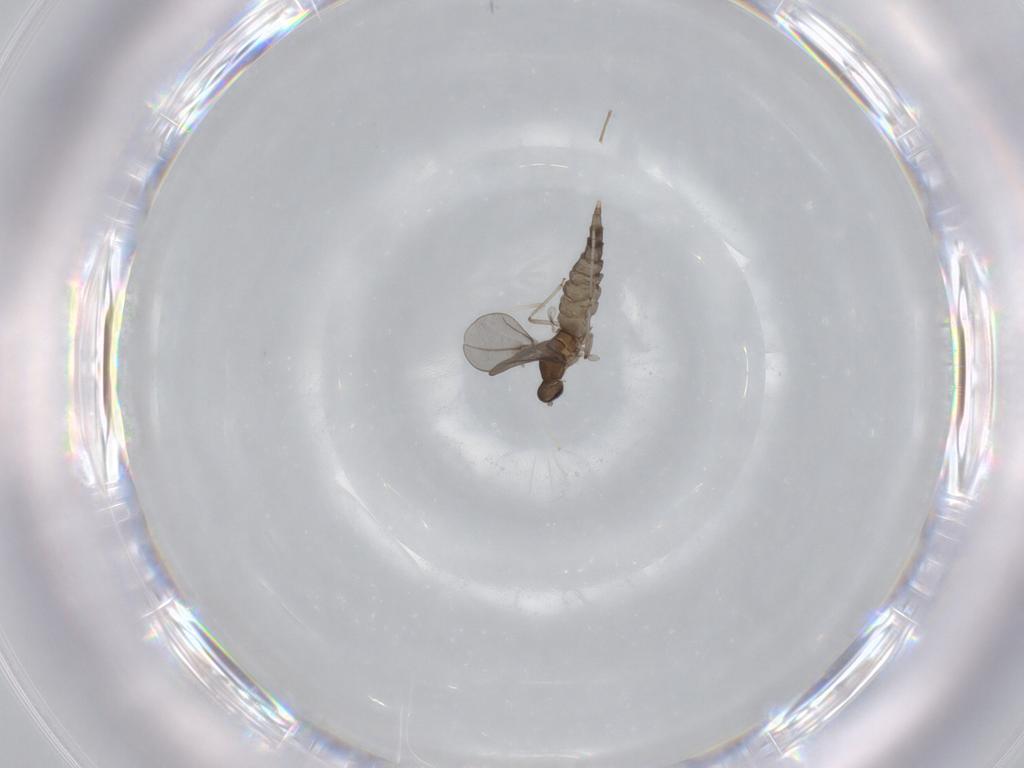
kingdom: Animalia
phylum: Arthropoda
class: Insecta
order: Diptera
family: Cecidomyiidae
